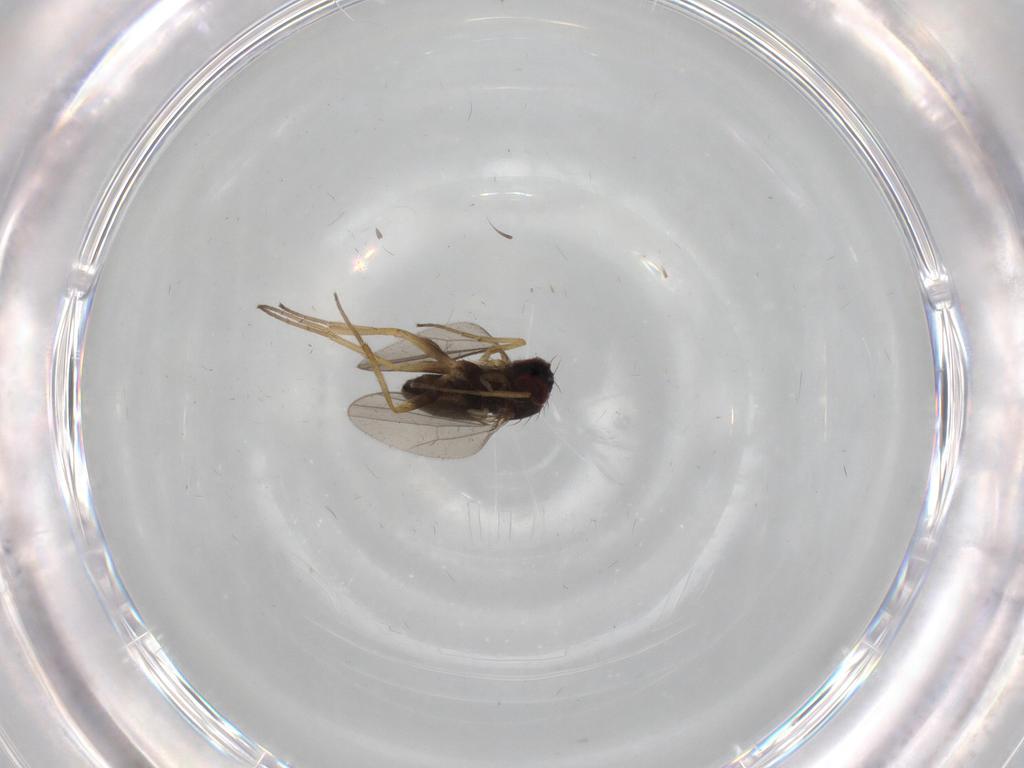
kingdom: Animalia
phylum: Arthropoda
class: Insecta
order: Diptera
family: Dolichopodidae
